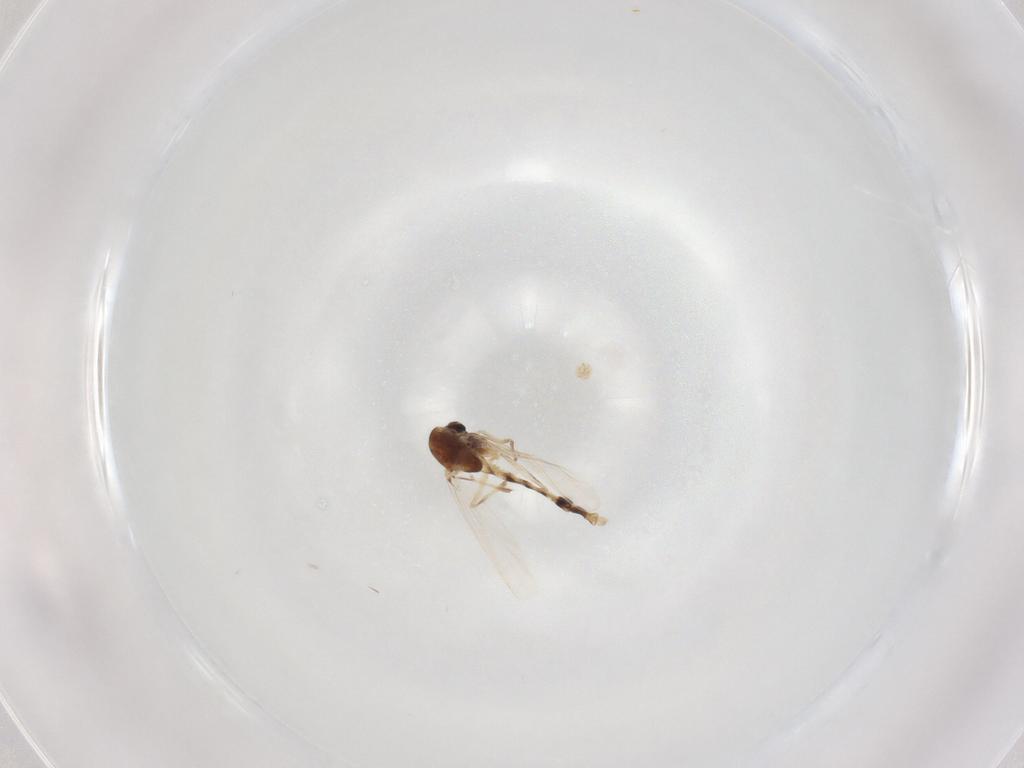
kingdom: Animalia
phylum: Arthropoda
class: Insecta
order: Diptera
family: Chironomidae
